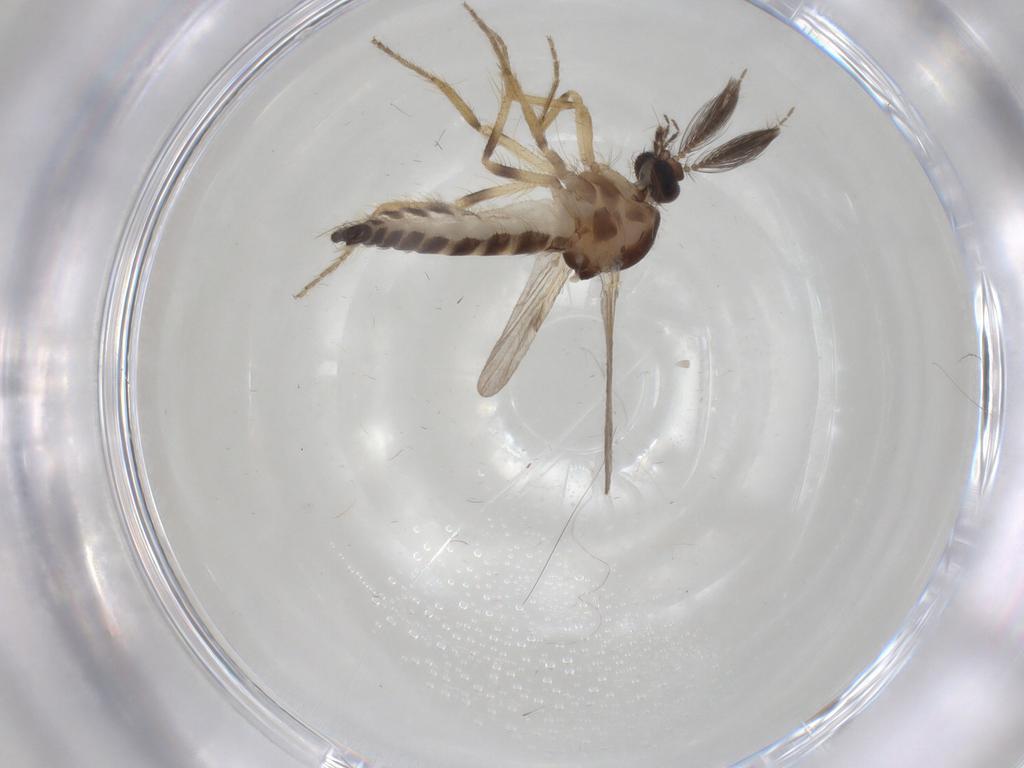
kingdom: Animalia
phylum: Arthropoda
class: Insecta
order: Diptera
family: Ceratopogonidae
